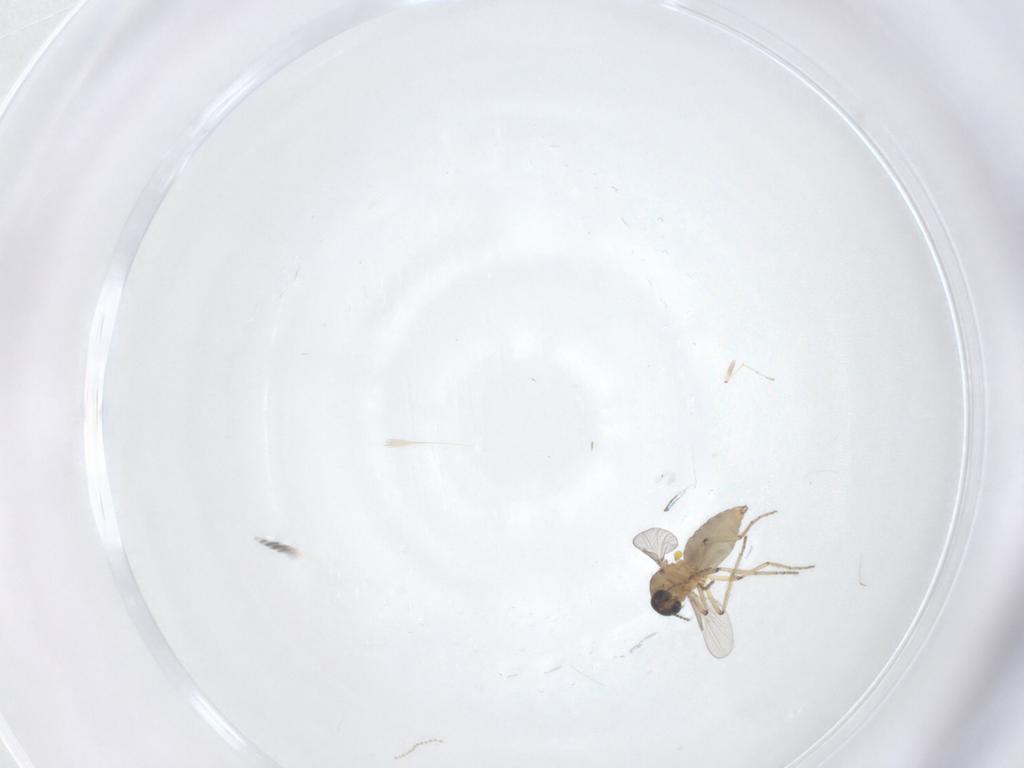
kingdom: Animalia
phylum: Arthropoda
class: Insecta
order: Diptera
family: Cecidomyiidae
